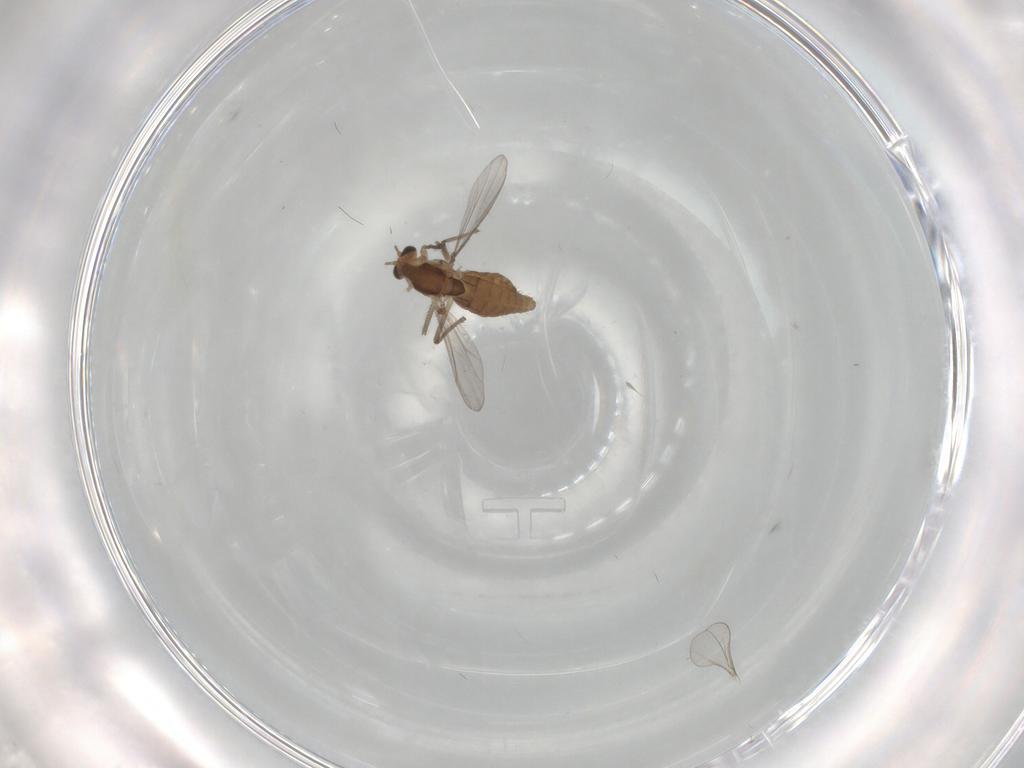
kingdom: Animalia
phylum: Arthropoda
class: Insecta
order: Diptera
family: Chironomidae
